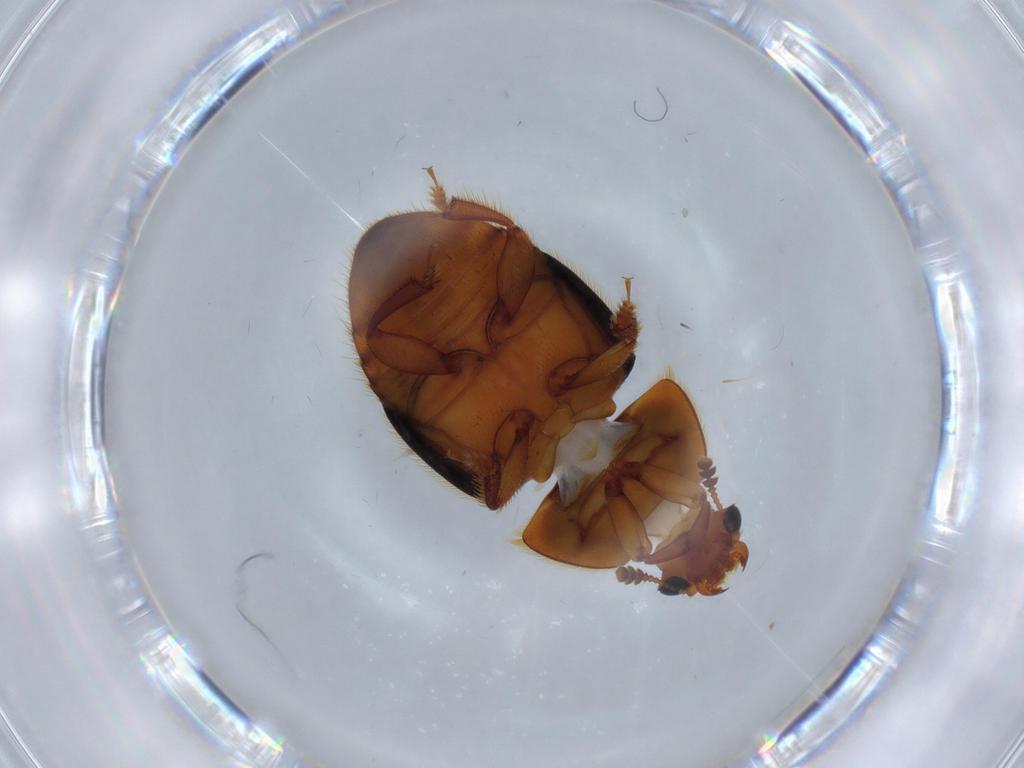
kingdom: Animalia
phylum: Arthropoda
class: Insecta
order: Coleoptera
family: Nitidulidae
